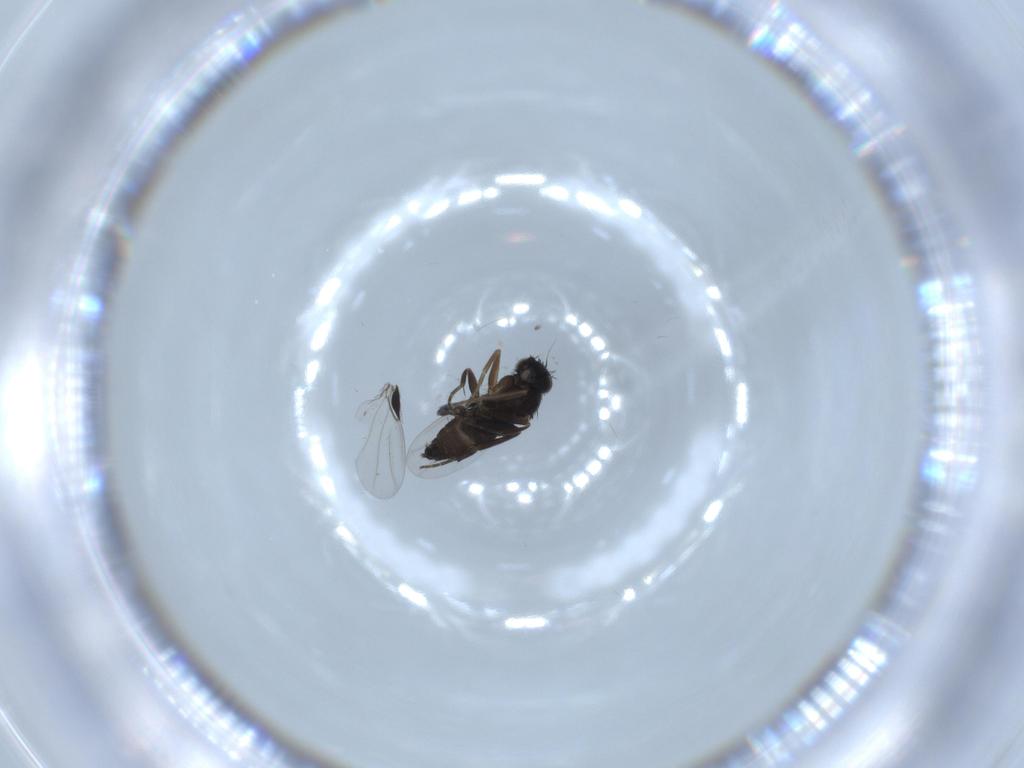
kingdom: Animalia
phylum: Arthropoda
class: Insecta
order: Diptera
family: Phoridae
